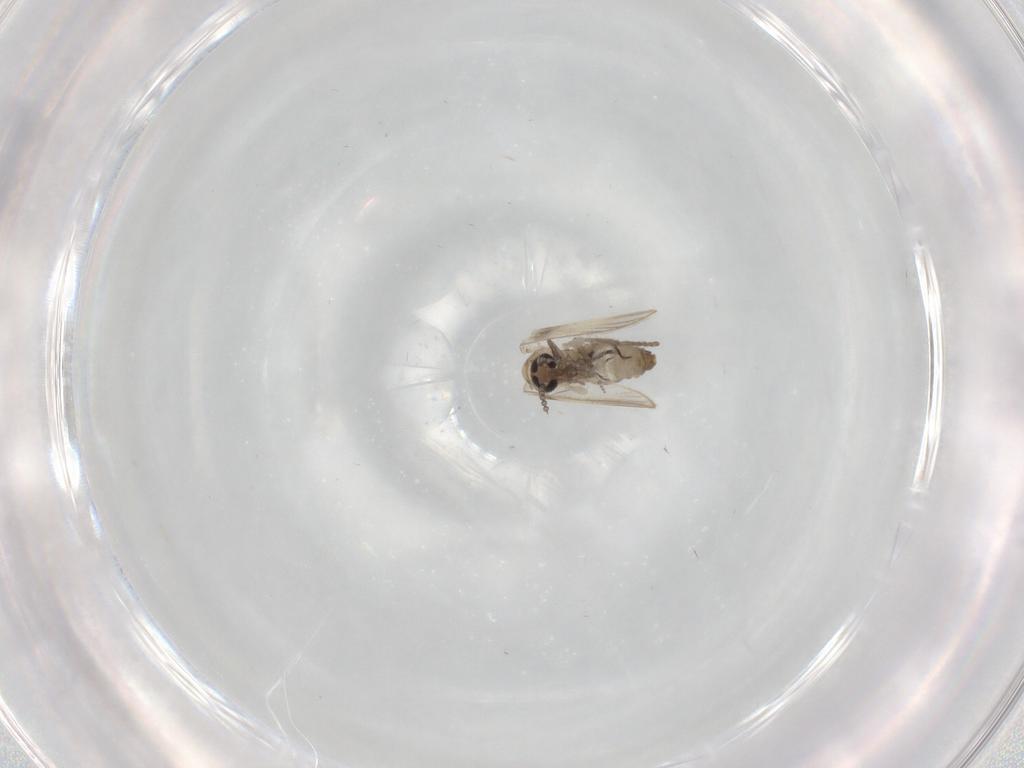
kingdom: Animalia
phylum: Arthropoda
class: Insecta
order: Diptera
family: Psychodidae
